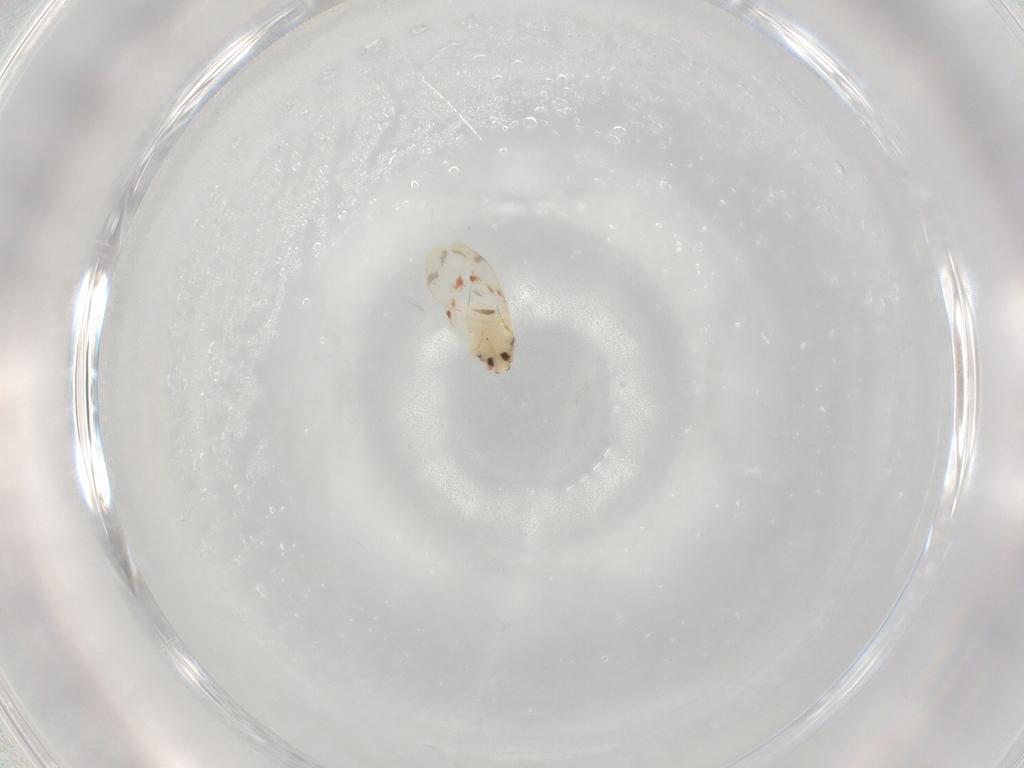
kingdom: Animalia
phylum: Arthropoda
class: Insecta
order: Hemiptera
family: Aleyrodidae
